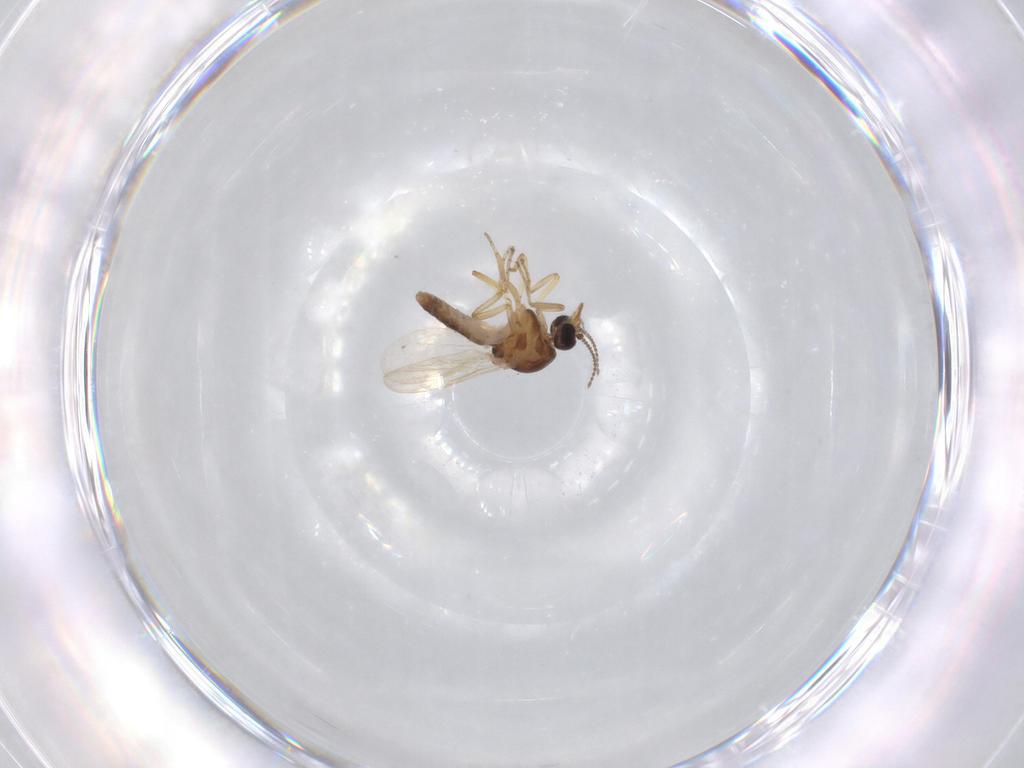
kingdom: Animalia
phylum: Arthropoda
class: Insecta
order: Diptera
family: Ceratopogonidae
